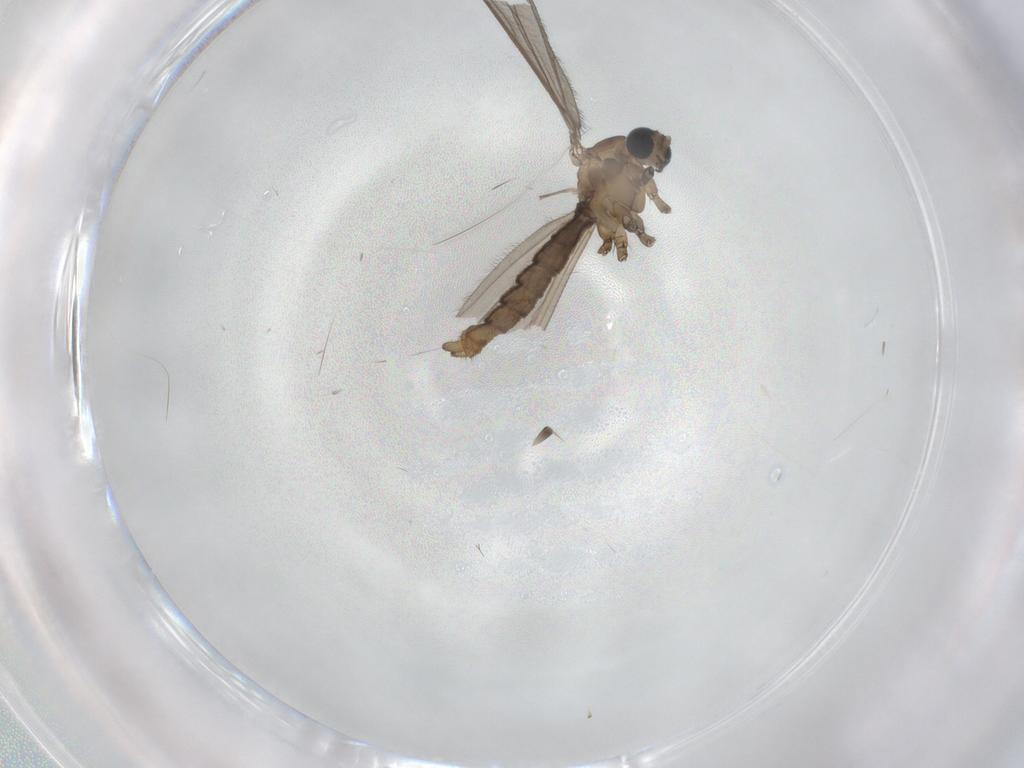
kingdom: Animalia
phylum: Arthropoda
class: Insecta
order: Diptera
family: Limoniidae
